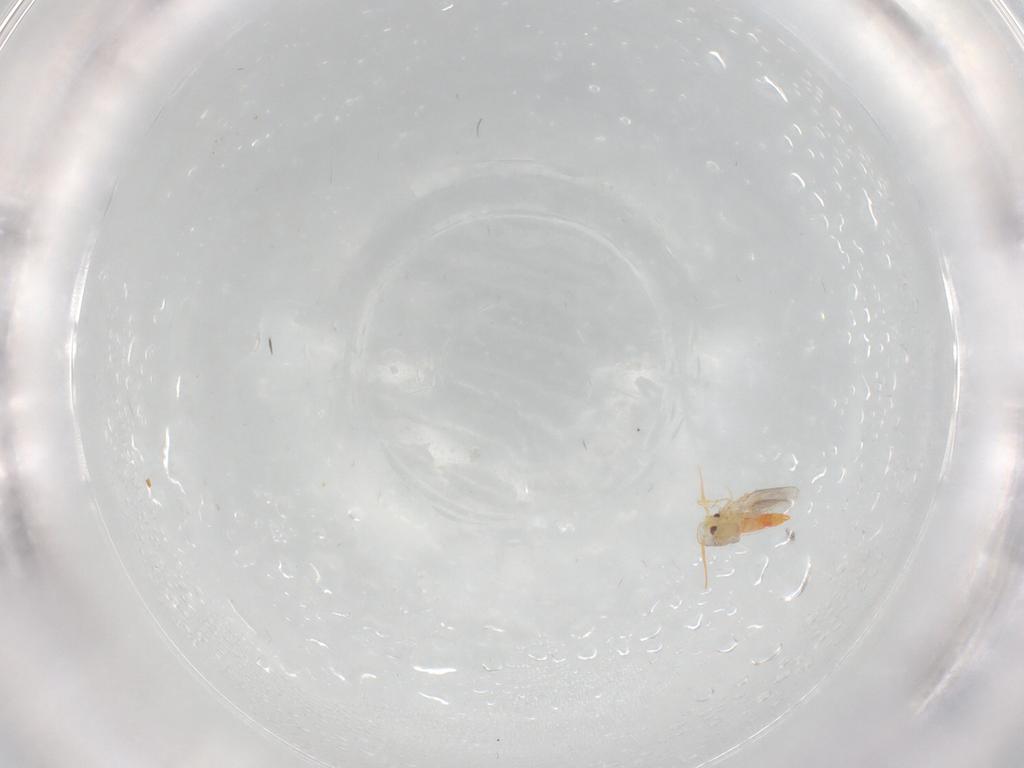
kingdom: Animalia
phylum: Arthropoda
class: Insecta
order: Hemiptera
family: Aleyrodidae
